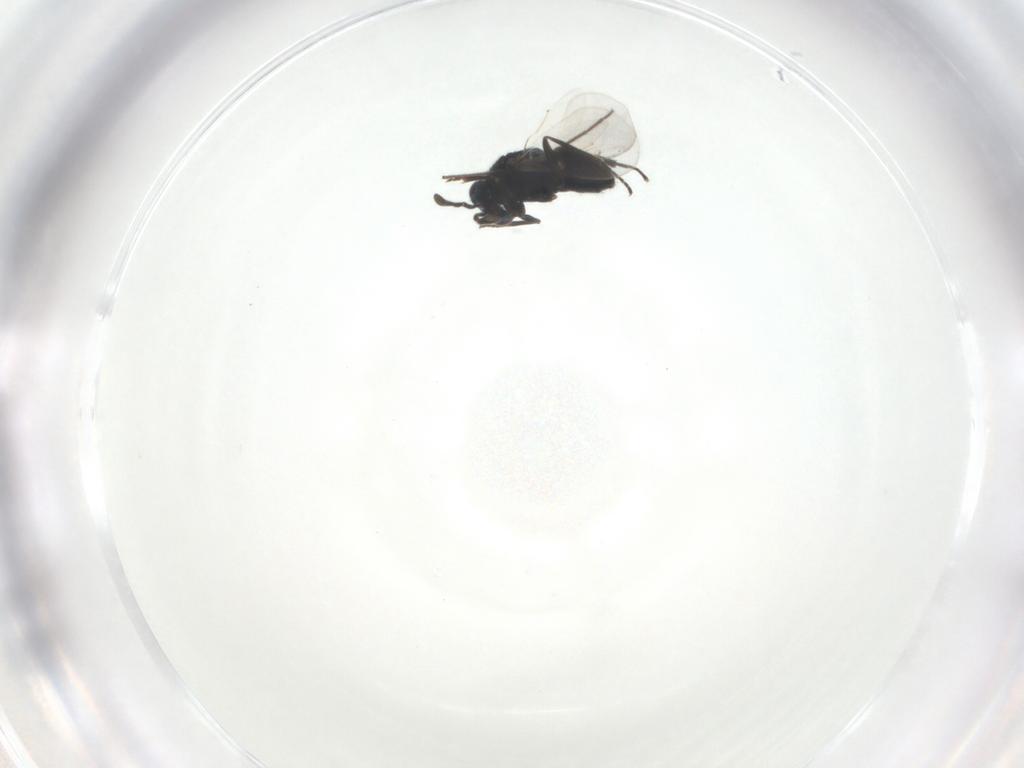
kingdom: Animalia
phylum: Arthropoda
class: Insecta
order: Hymenoptera
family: Encyrtidae
